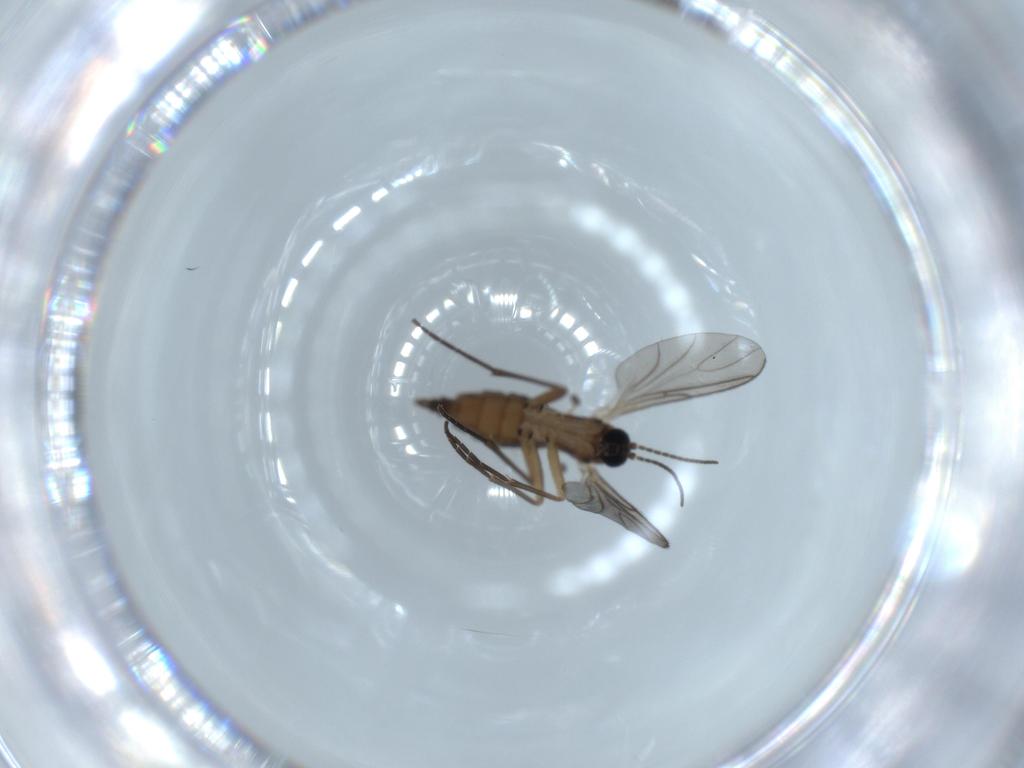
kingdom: Animalia
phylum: Arthropoda
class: Insecta
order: Diptera
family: Sciaridae
